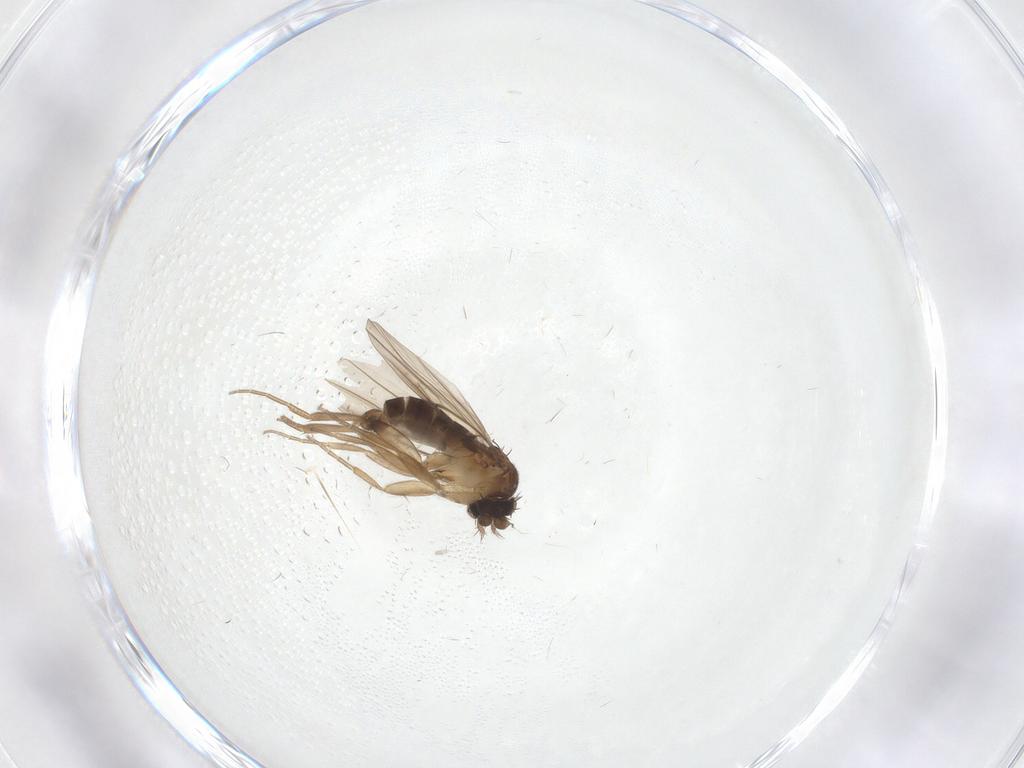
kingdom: Animalia
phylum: Arthropoda
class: Insecta
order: Diptera
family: Phoridae
